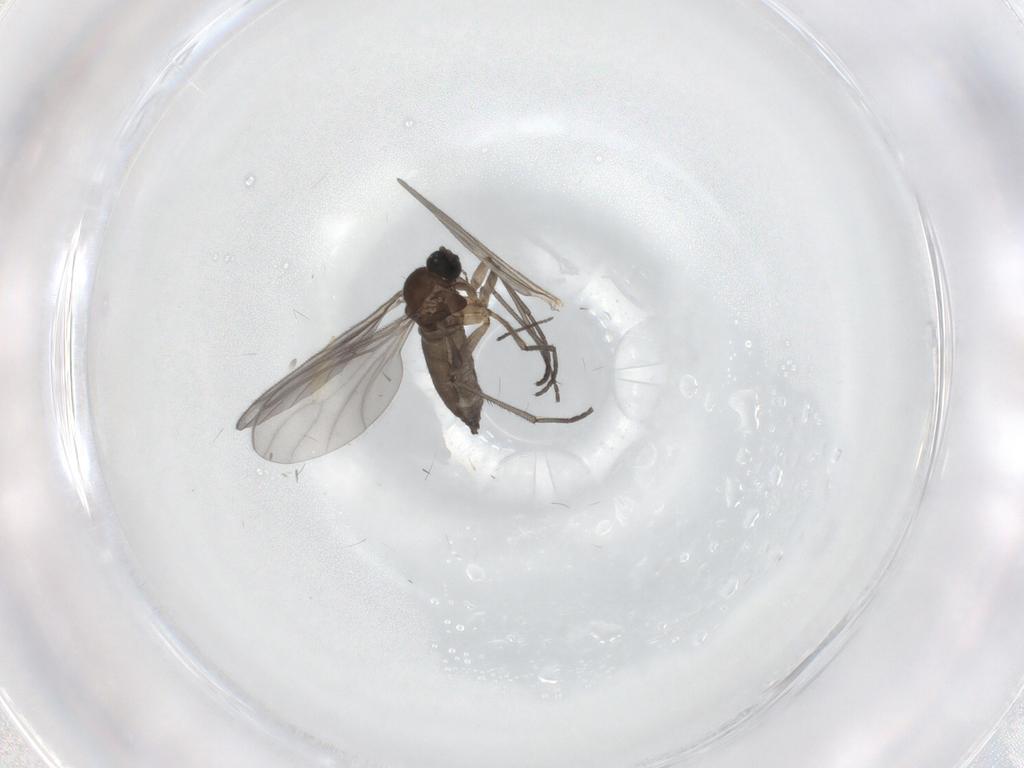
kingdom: Animalia
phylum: Arthropoda
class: Insecta
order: Diptera
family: Sciaridae
